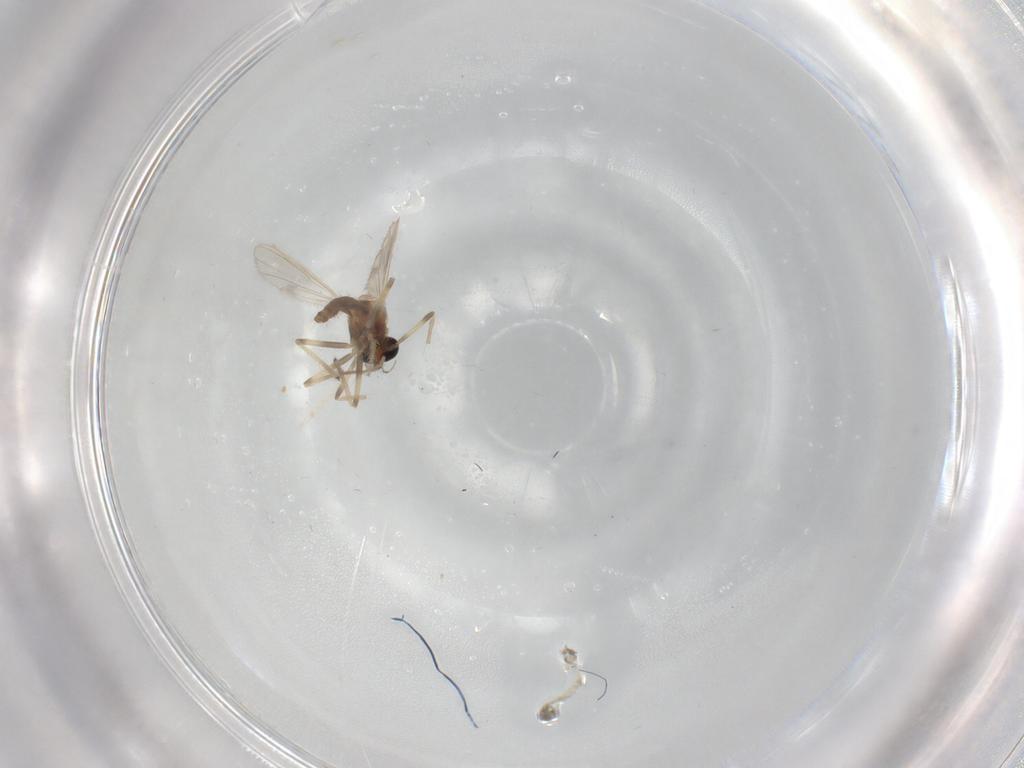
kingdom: Animalia
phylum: Arthropoda
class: Insecta
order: Diptera
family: Chironomidae
